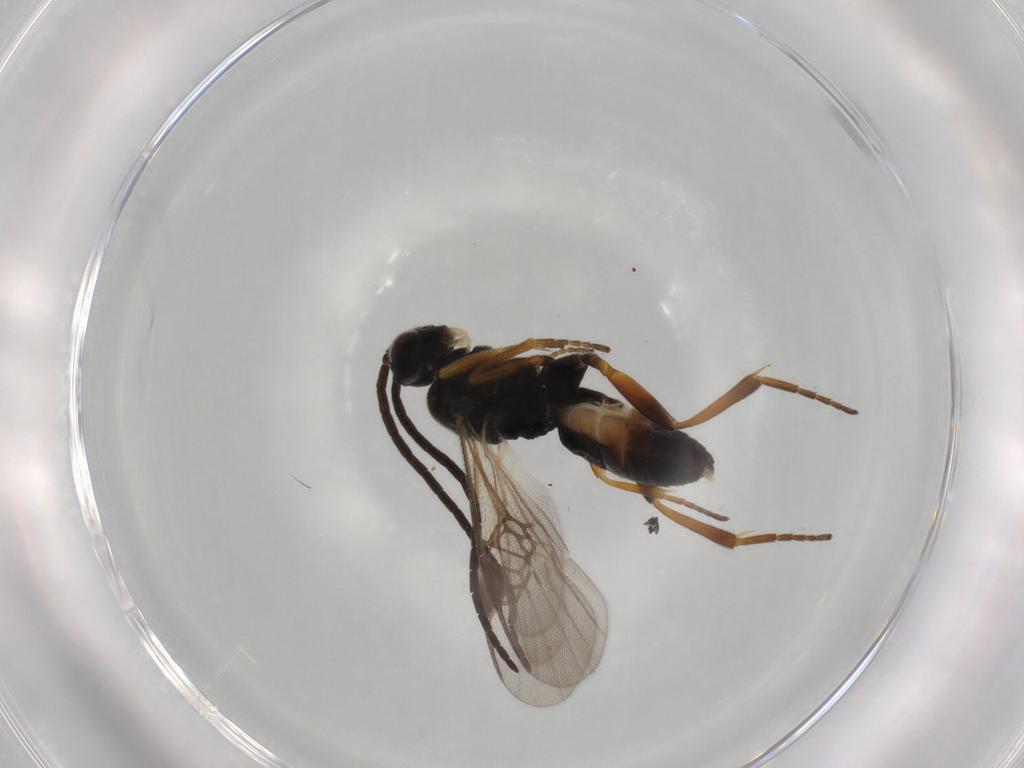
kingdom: Animalia
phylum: Arthropoda
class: Insecta
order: Hymenoptera
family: Braconidae
